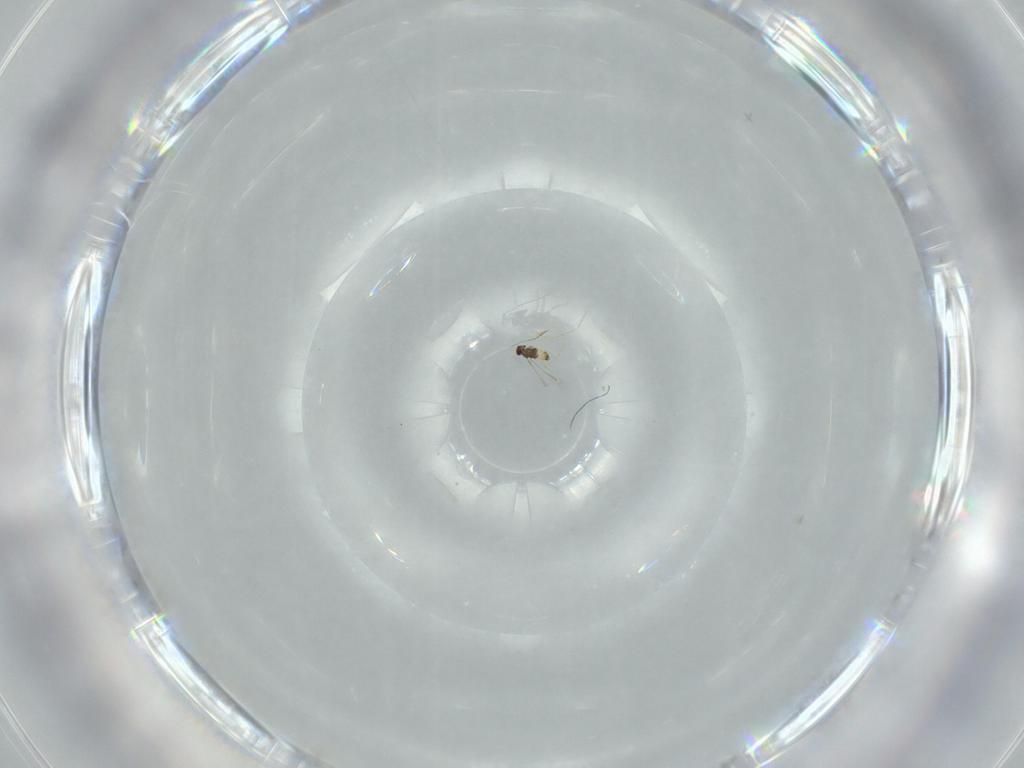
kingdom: Animalia
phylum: Arthropoda
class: Insecta
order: Hymenoptera
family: Mymaridae
